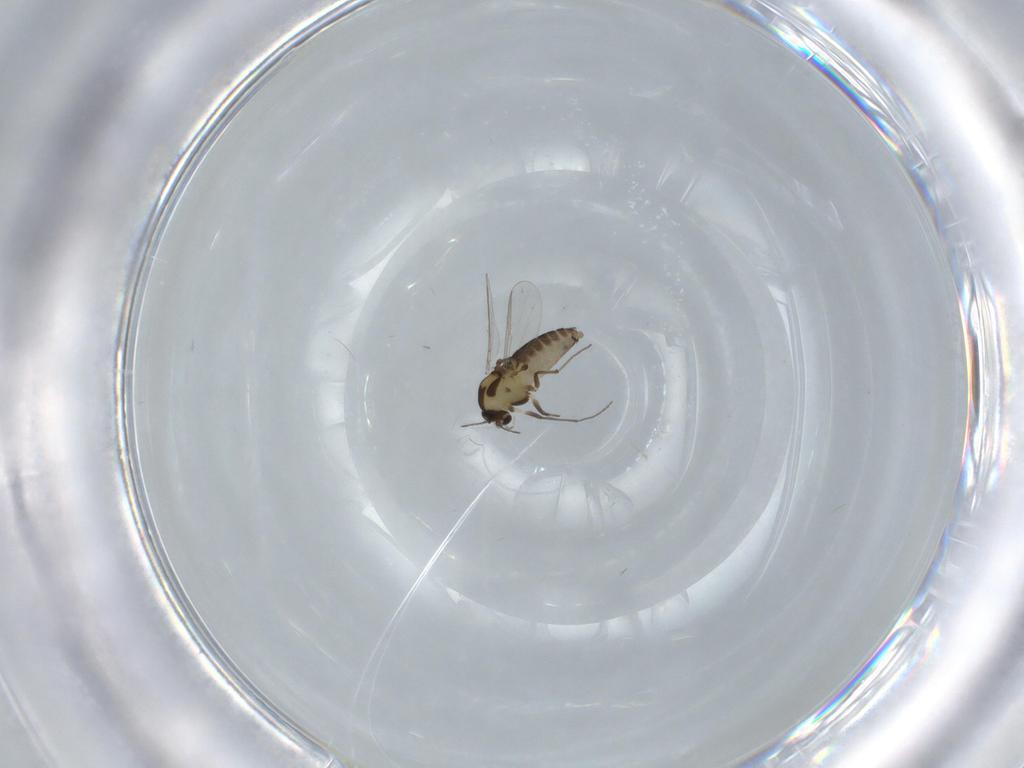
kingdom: Animalia
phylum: Arthropoda
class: Insecta
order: Diptera
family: Chironomidae
